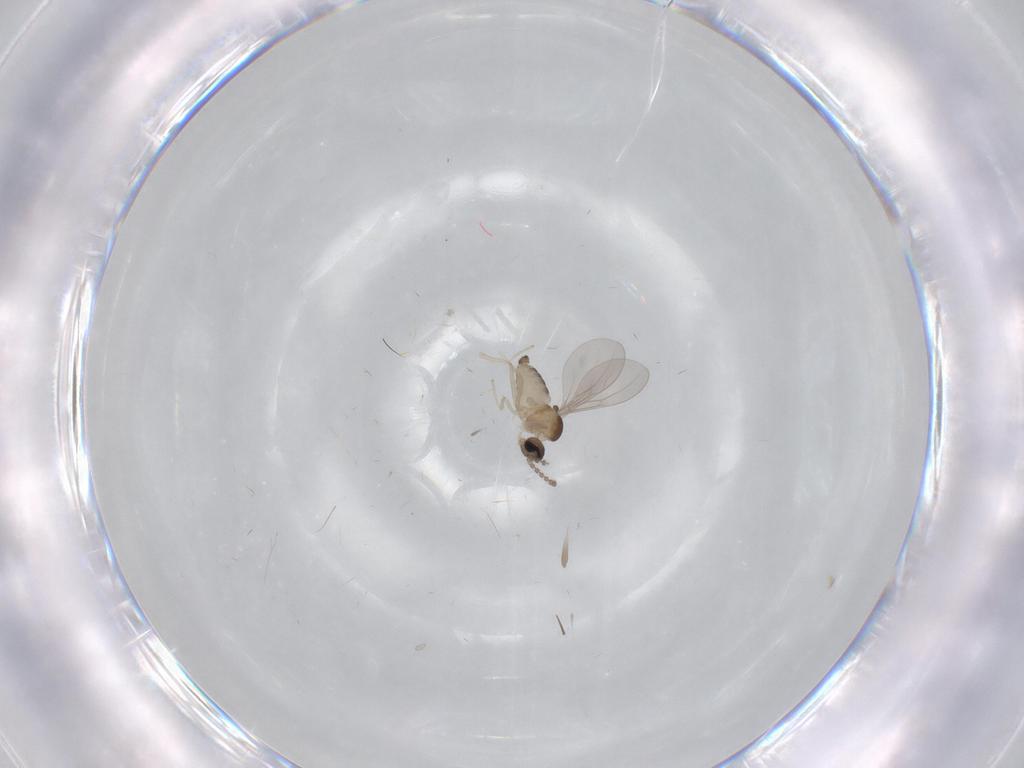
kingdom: Animalia
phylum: Arthropoda
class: Insecta
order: Diptera
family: Cecidomyiidae
